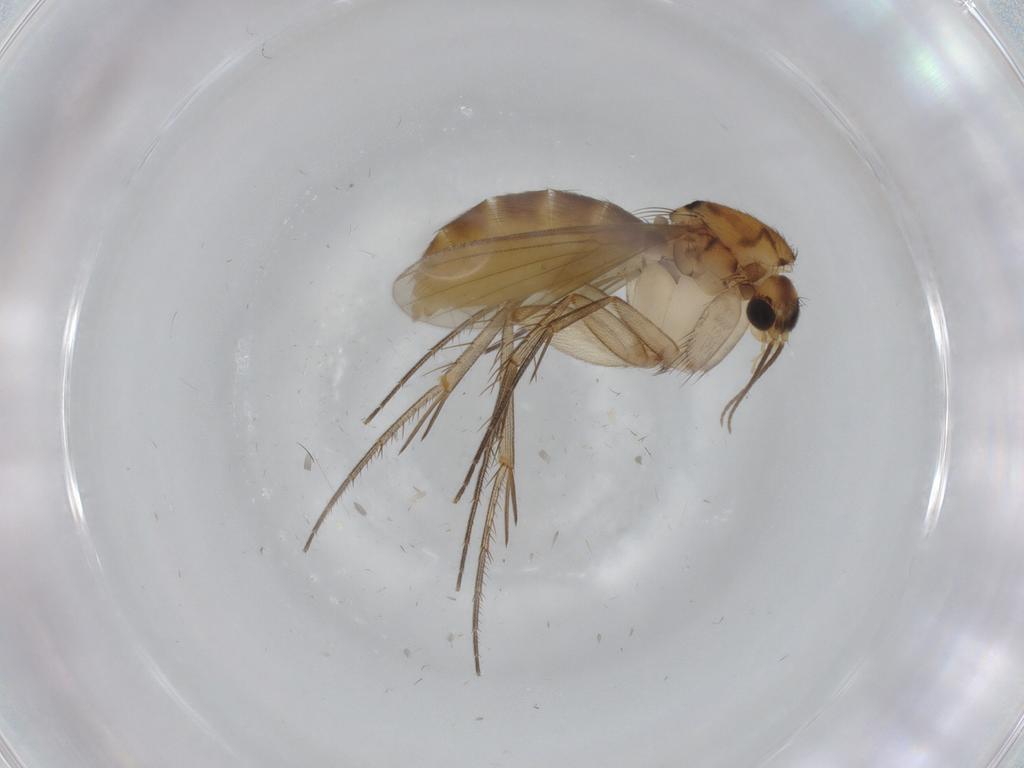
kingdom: Animalia
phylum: Arthropoda
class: Insecta
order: Diptera
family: Mycetophilidae
